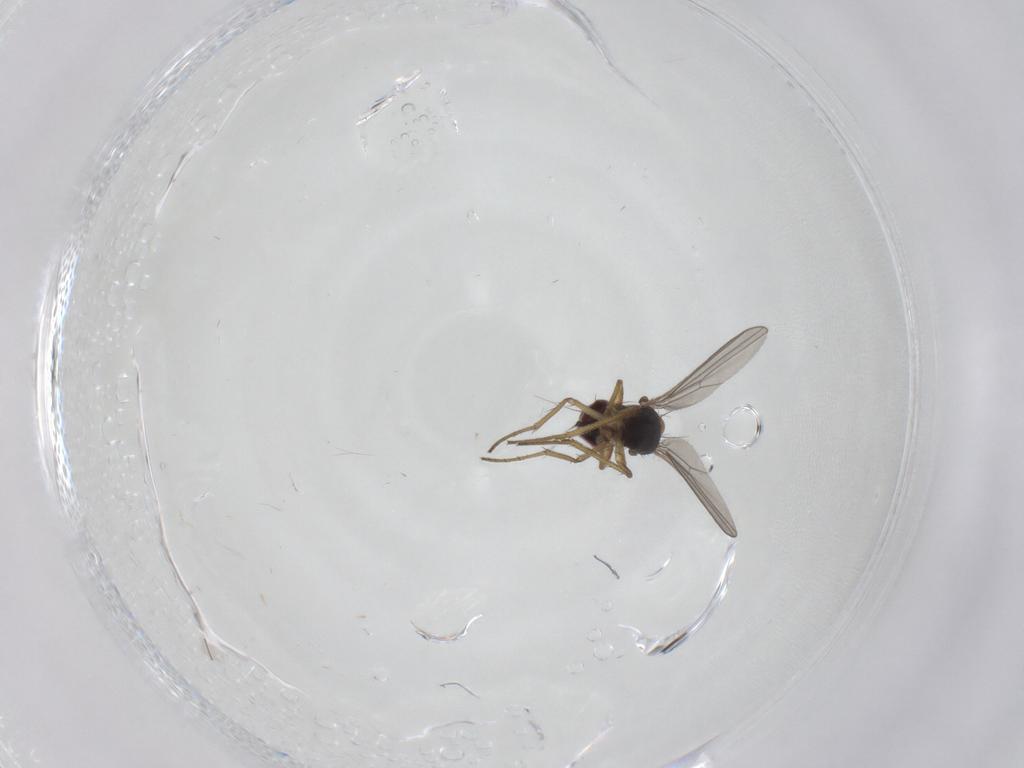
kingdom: Animalia
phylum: Arthropoda
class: Insecta
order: Diptera
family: Dolichopodidae
